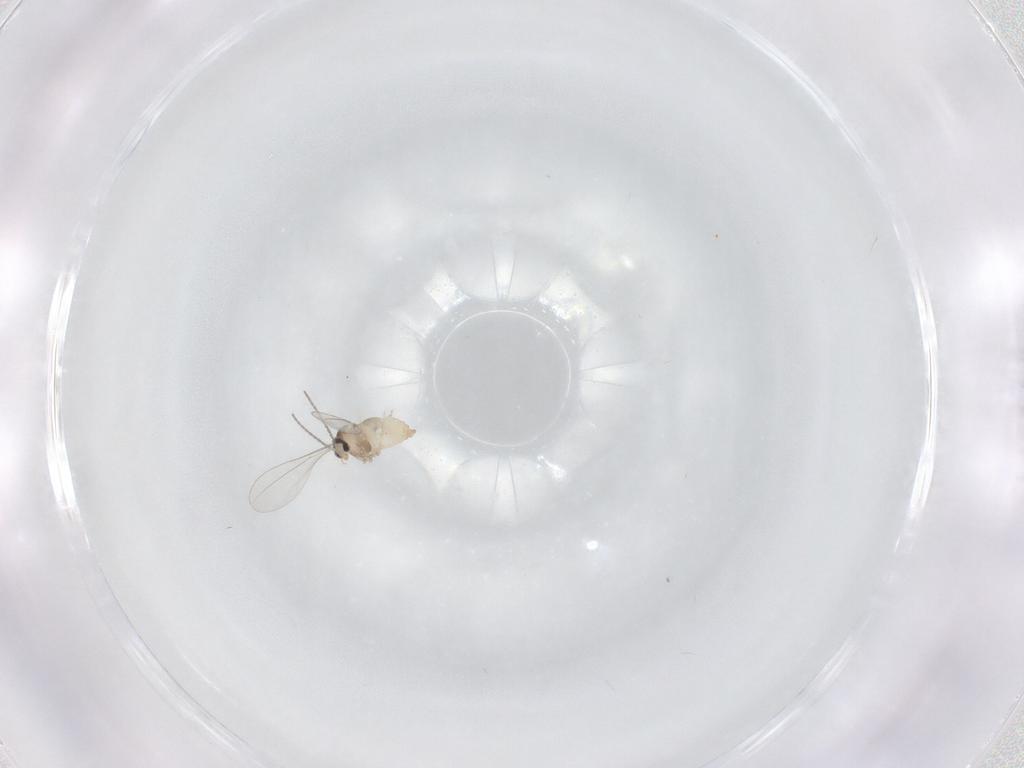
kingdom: Animalia
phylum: Arthropoda
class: Insecta
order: Diptera
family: Cecidomyiidae
